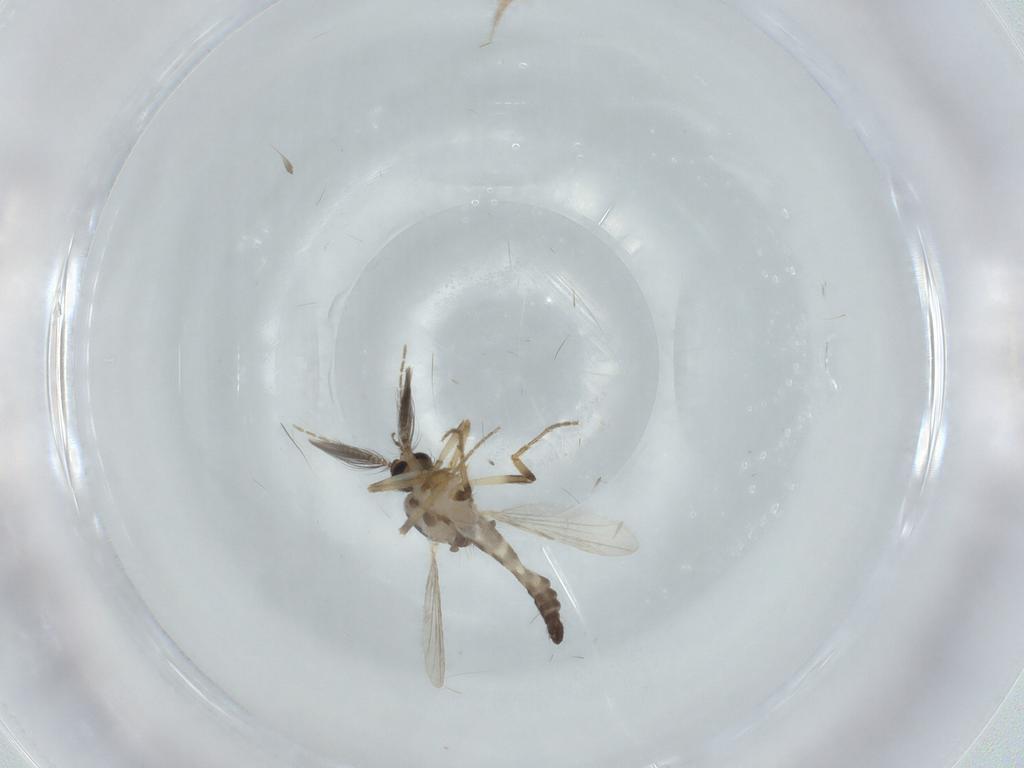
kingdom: Animalia
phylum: Arthropoda
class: Insecta
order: Diptera
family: Ceratopogonidae
